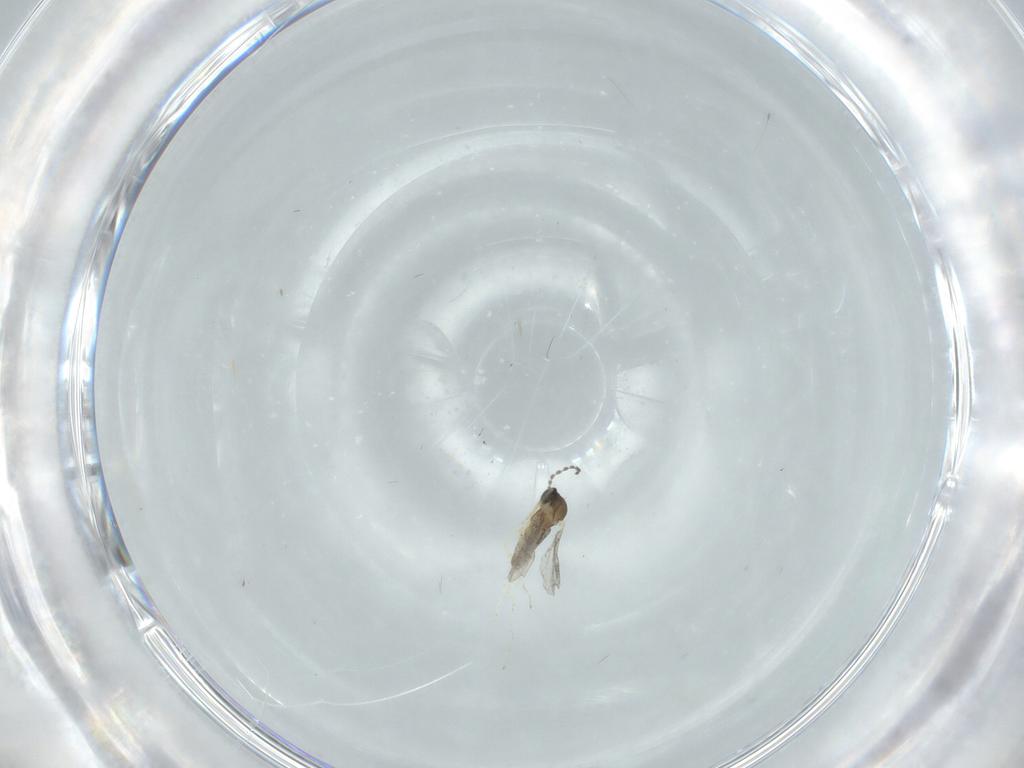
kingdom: Animalia
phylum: Arthropoda
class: Insecta
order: Diptera
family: Cecidomyiidae
